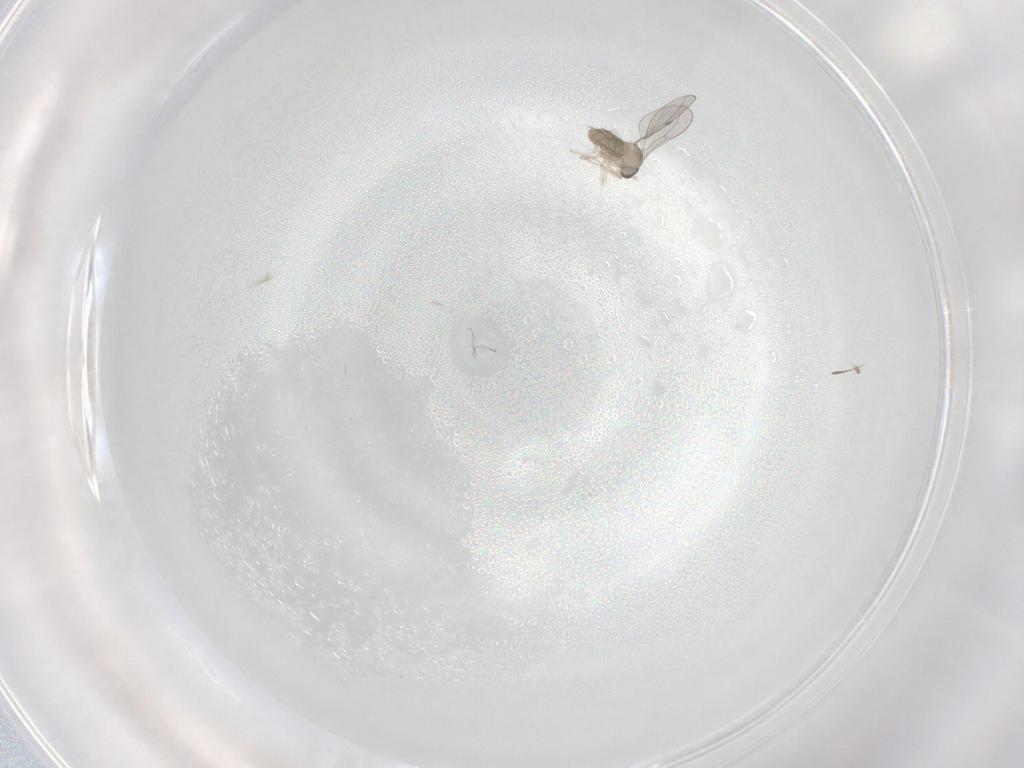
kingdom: Animalia
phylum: Arthropoda
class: Insecta
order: Diptera
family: Cecidomyiidae
